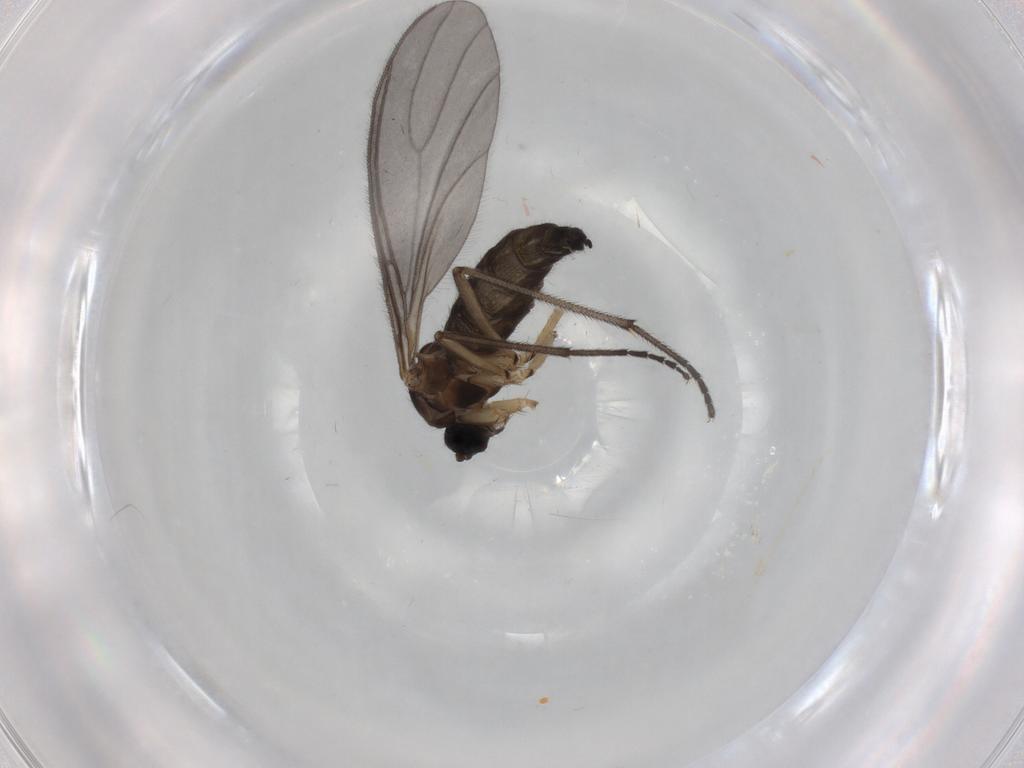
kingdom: Animalia
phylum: Arthropoda
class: Insecta
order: Diptera
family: Sciaridae
